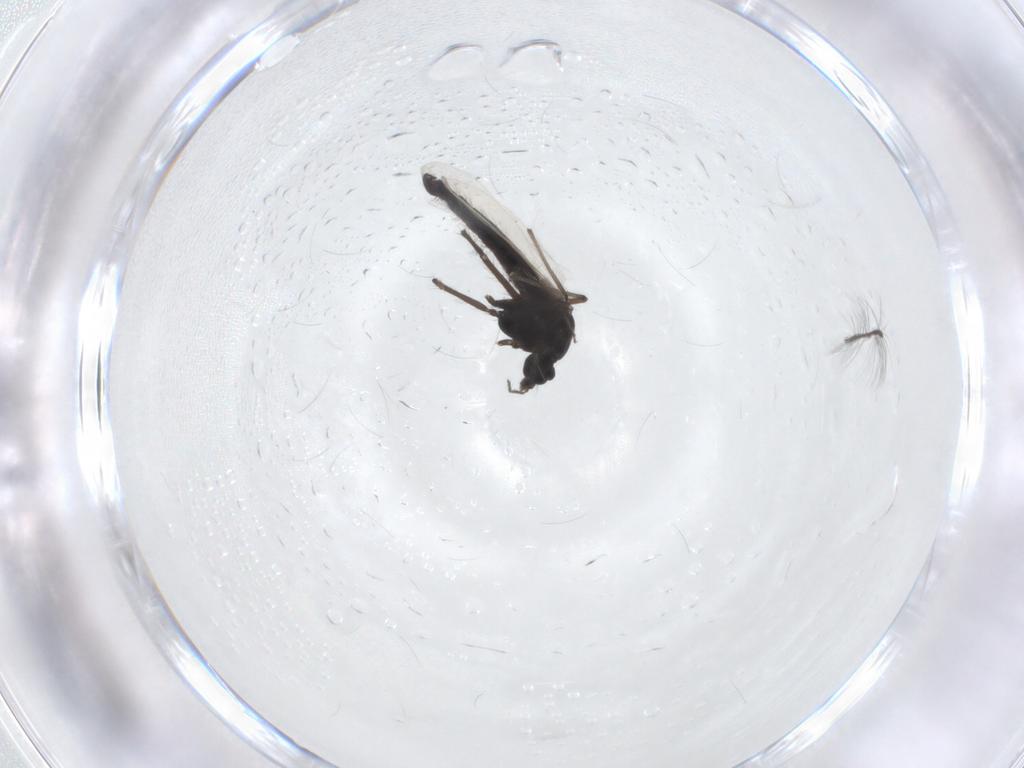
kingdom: Animalia
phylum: Arthropoda
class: Insecta
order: Diptera
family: Chironomidae
